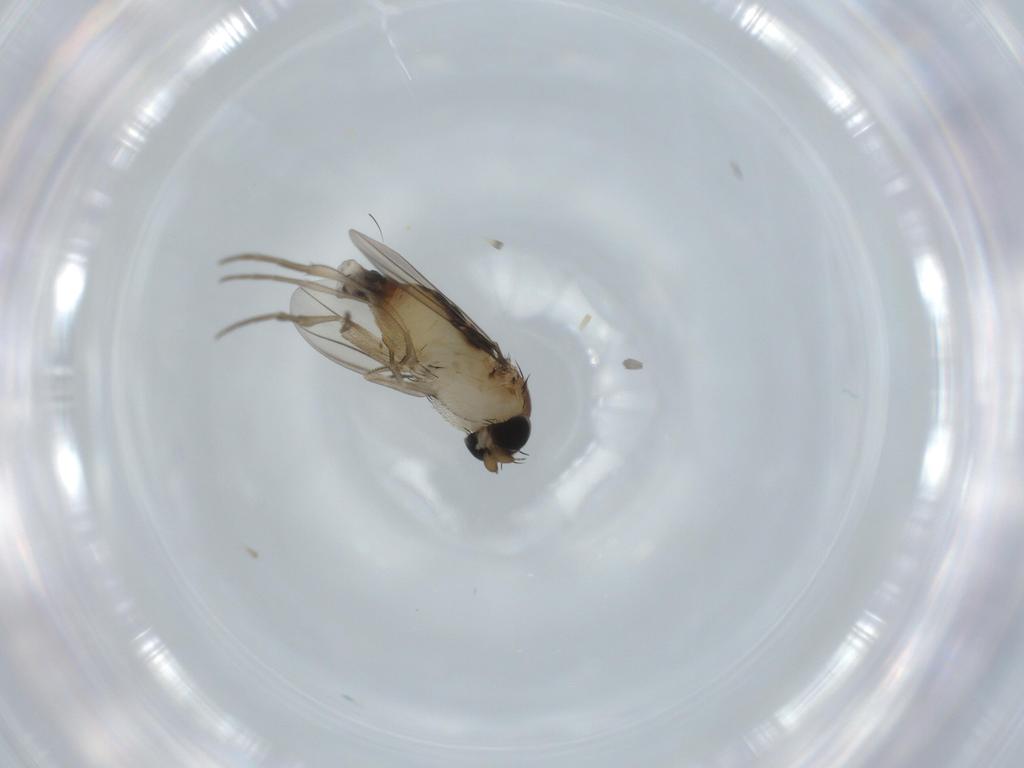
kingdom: Animalia
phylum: Arthropoda
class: Insecta
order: Diptera
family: Phoridae
